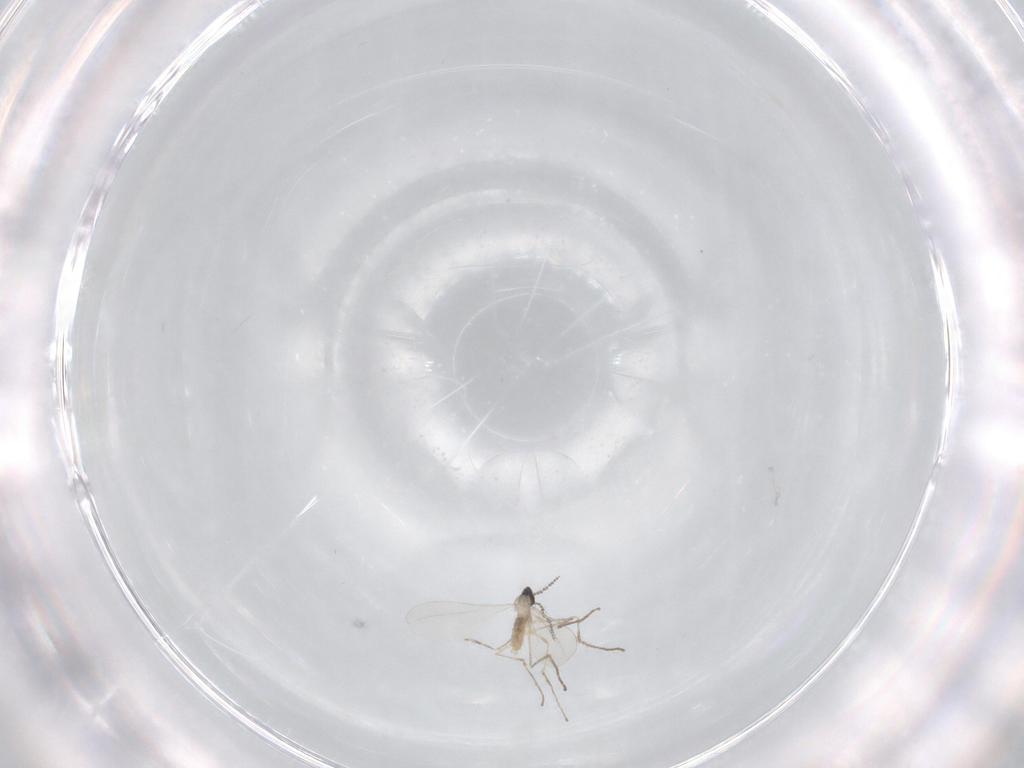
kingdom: Animalia
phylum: Arthropoda
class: Insecta
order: Diptera
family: Cecidomyiidae
